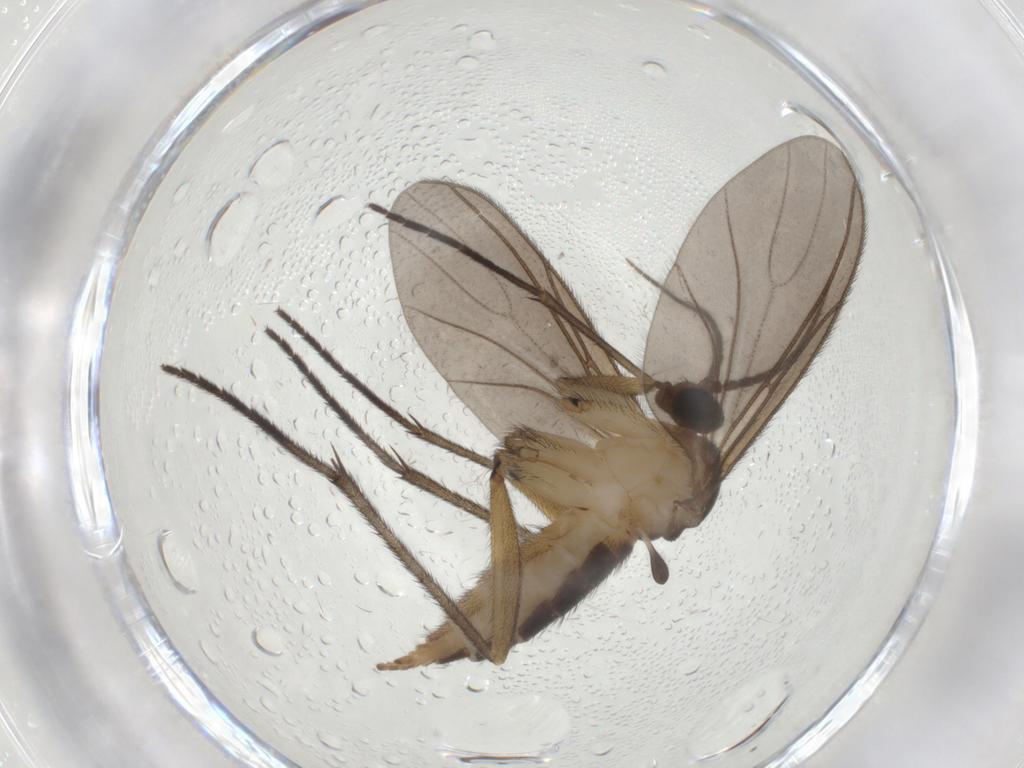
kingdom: Animalia
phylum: Arthropoda
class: Insecta
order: Diptera
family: Sciaridae
